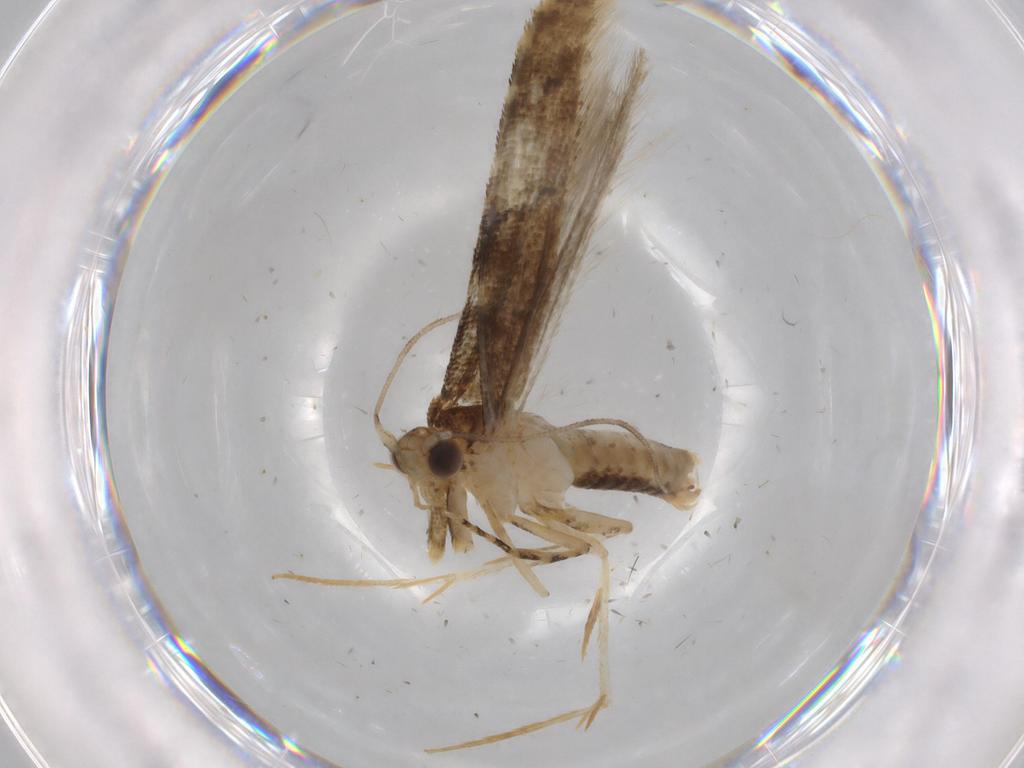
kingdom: Animalia
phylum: Arthropoda
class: Insecta
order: Lepidoptera
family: Tineidae
